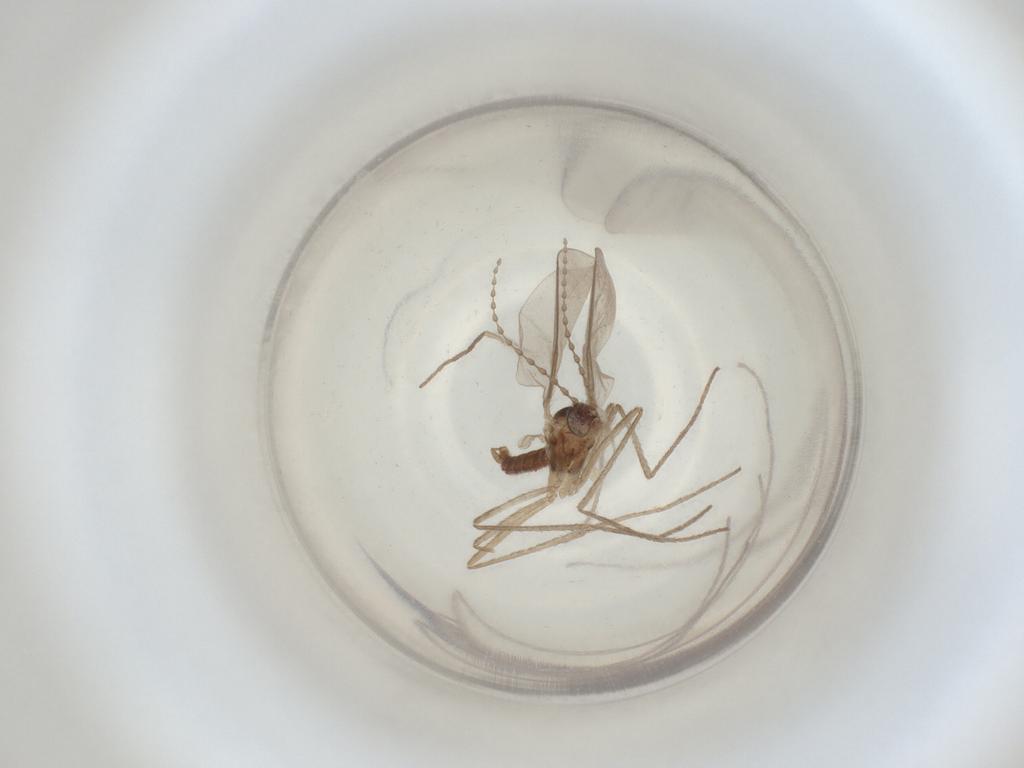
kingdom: Animalia
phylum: Arthropoda
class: Insecta
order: Diptera
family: Cecidomyiidae
